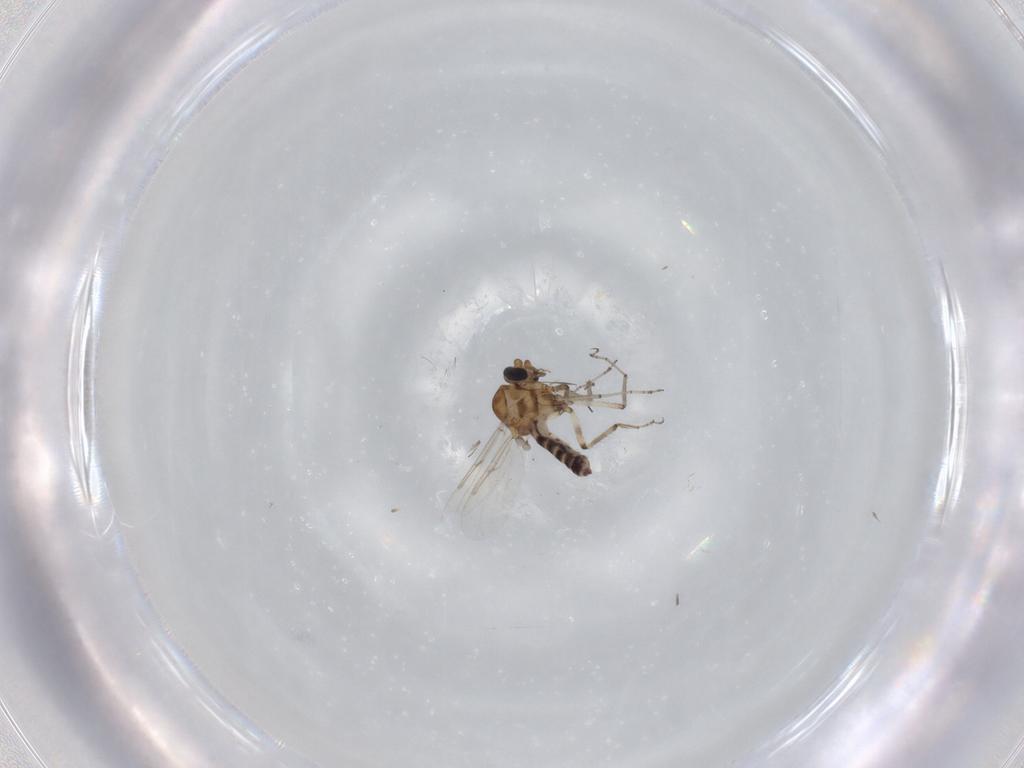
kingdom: Animalia
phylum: Arthropoda
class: Insecta
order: Diptera
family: Ceratopogonidae
